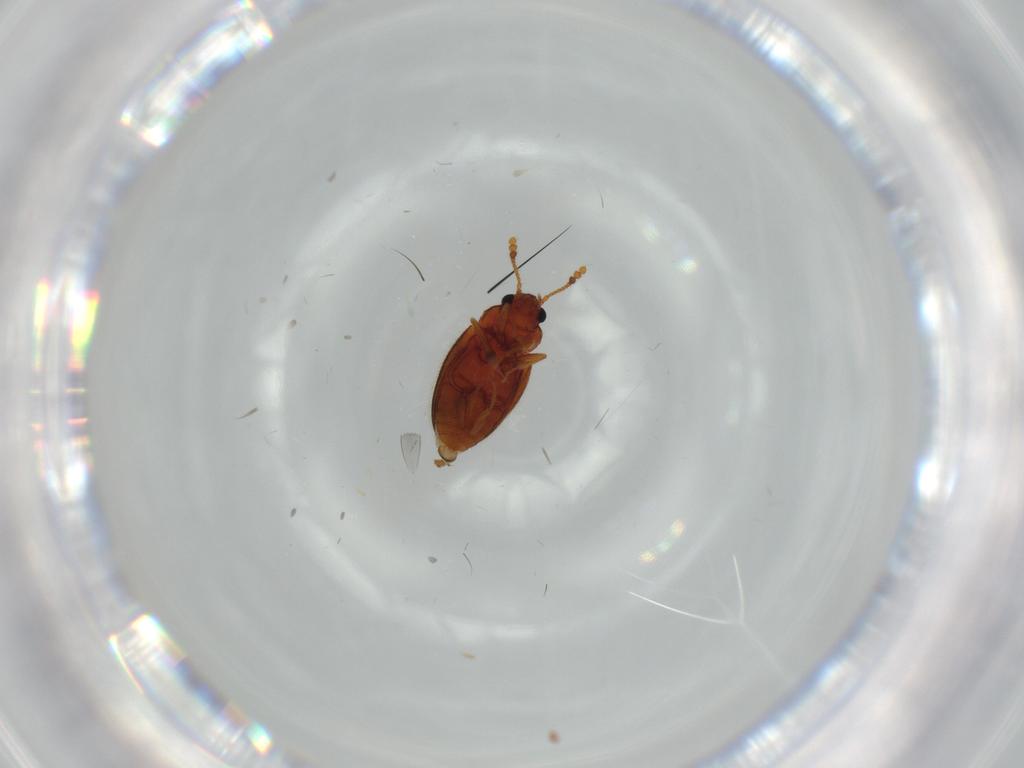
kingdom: Animalia
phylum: Arthropoda
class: Insecta
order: Coleoptera
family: Erotylidae
